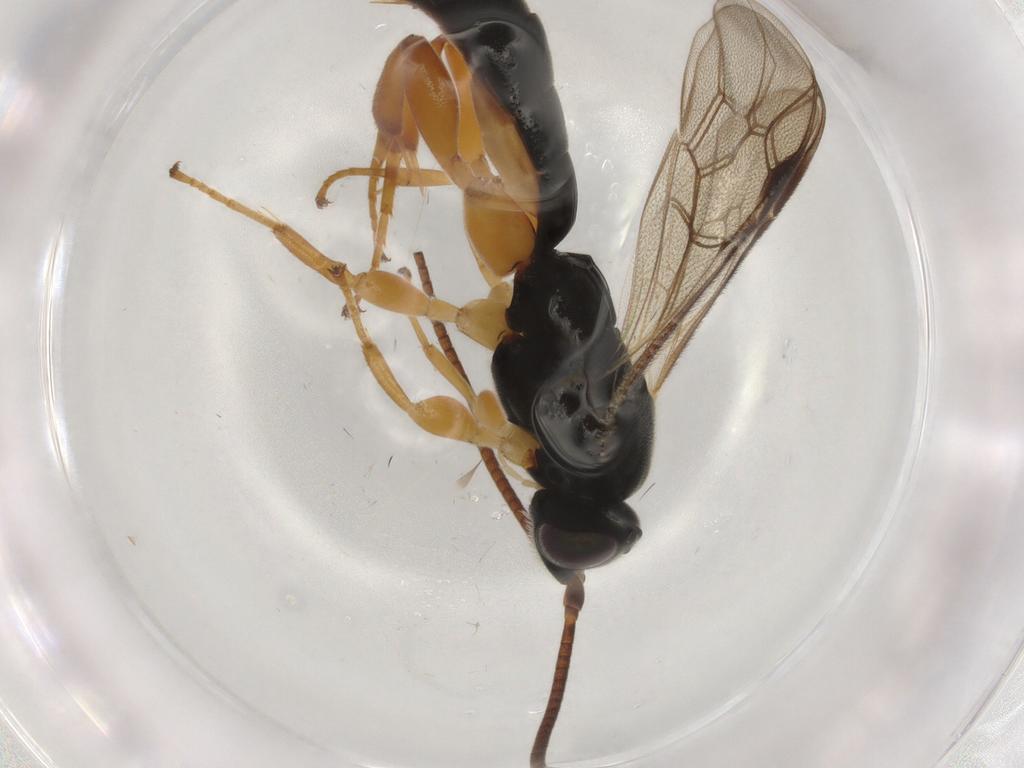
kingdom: Animalia
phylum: Arthropoda
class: Insecta
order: Hymenoptera
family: Ichneumonidae
